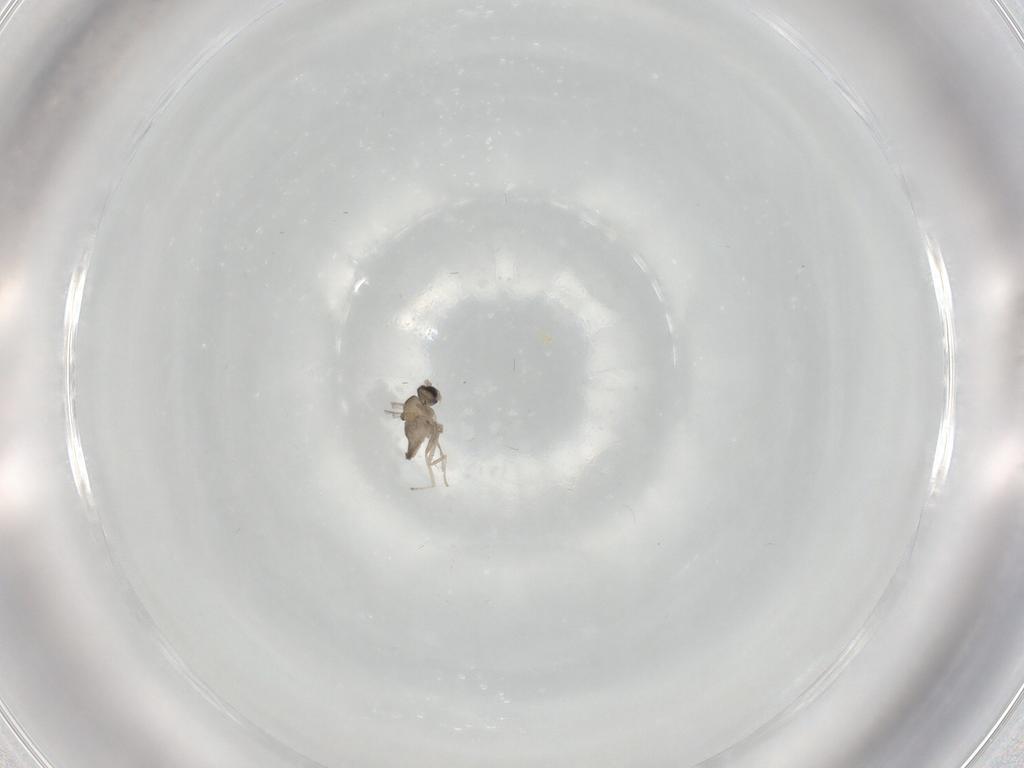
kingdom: Animalia
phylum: Arthropoda
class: Insecta
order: Diptera
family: Cecidomyiidae
